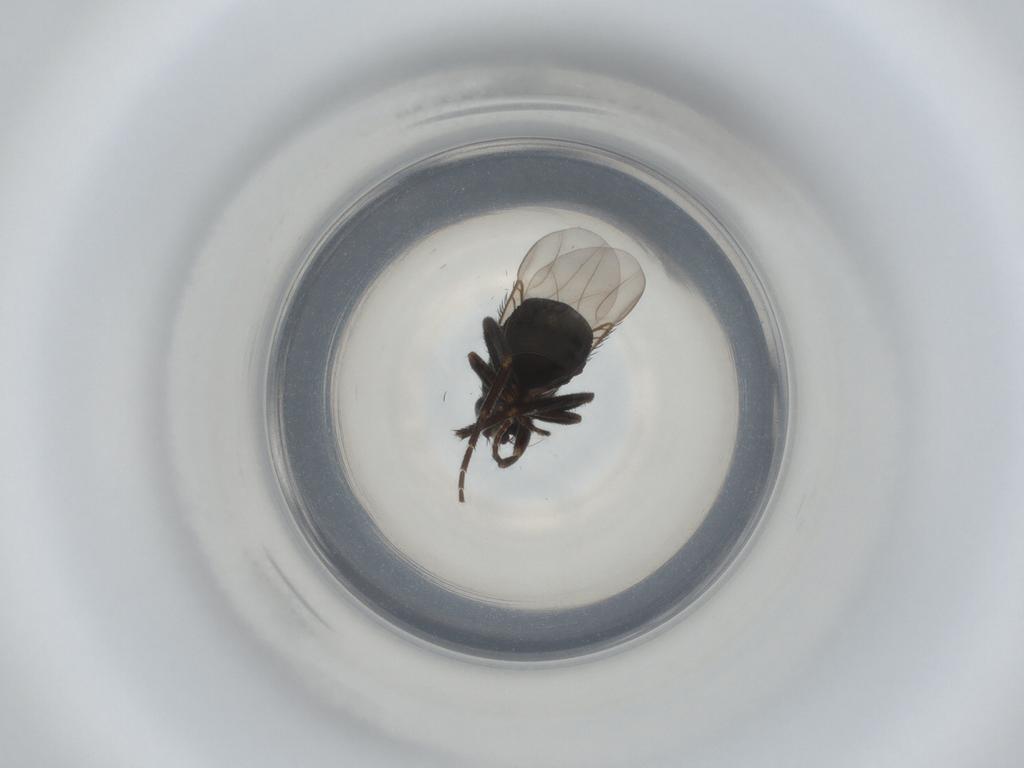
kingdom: Animalia
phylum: Arthropoda
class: Insecta
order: Diptera
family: Phoridae
